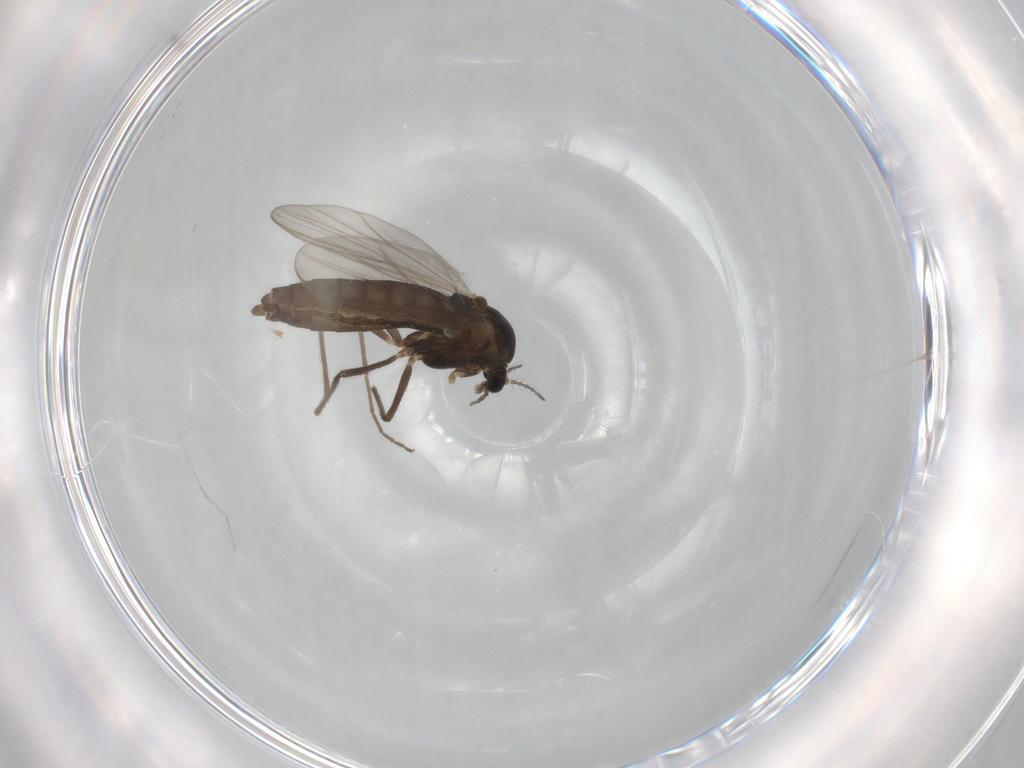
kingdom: Animalia
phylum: Arthropoda
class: Insecta
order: Diptera
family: Chironomidae
